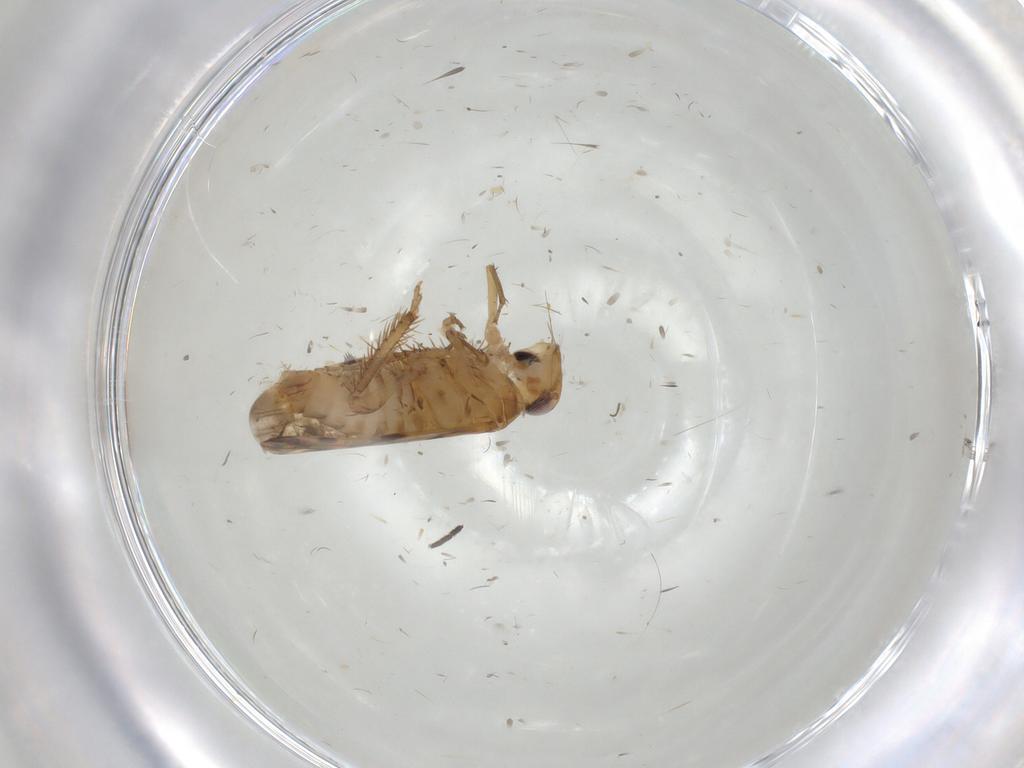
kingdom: Animalia
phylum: Arthropoda
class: Insecta
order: Hemiptera
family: Cicadellidae
